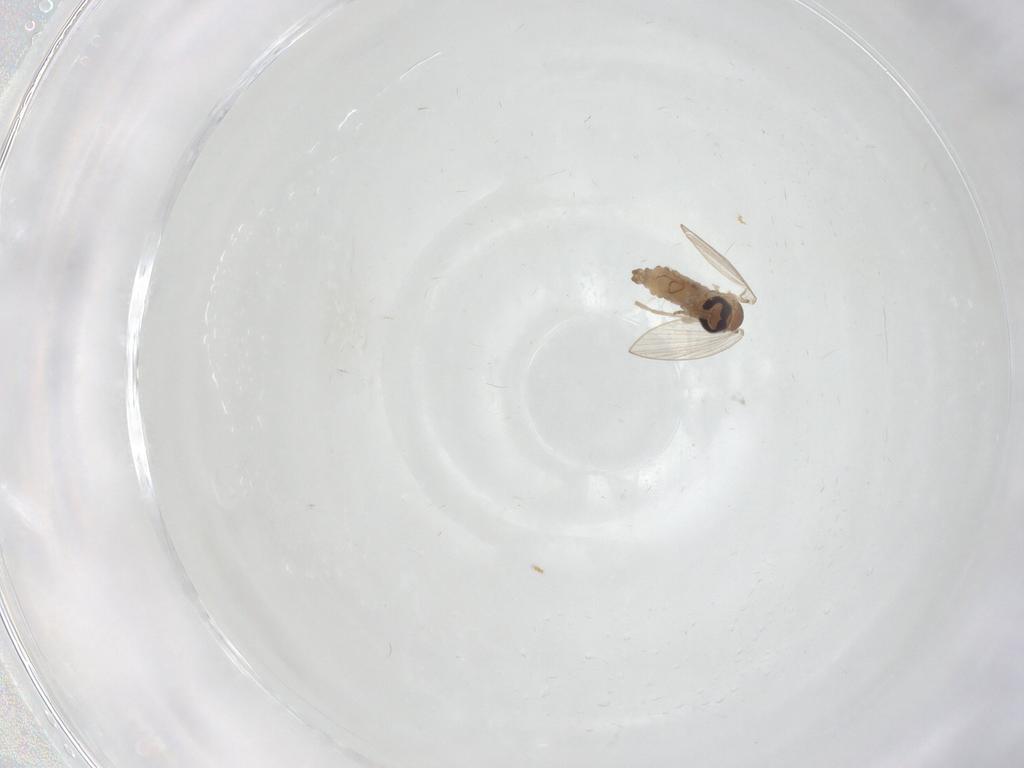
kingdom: Animalia
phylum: Arthropoda
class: Insecta
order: Diptera
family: Psychodidae
